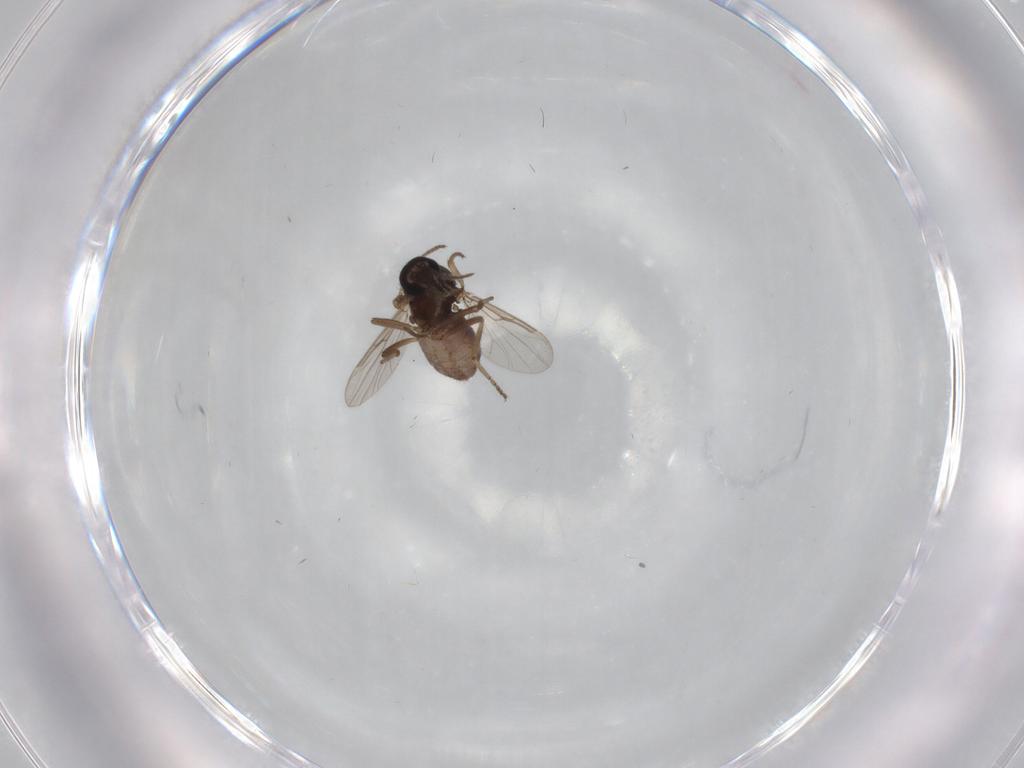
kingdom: Animalia
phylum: Arthropoda
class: Insecta
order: Diptera
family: Ceratopogonidae
